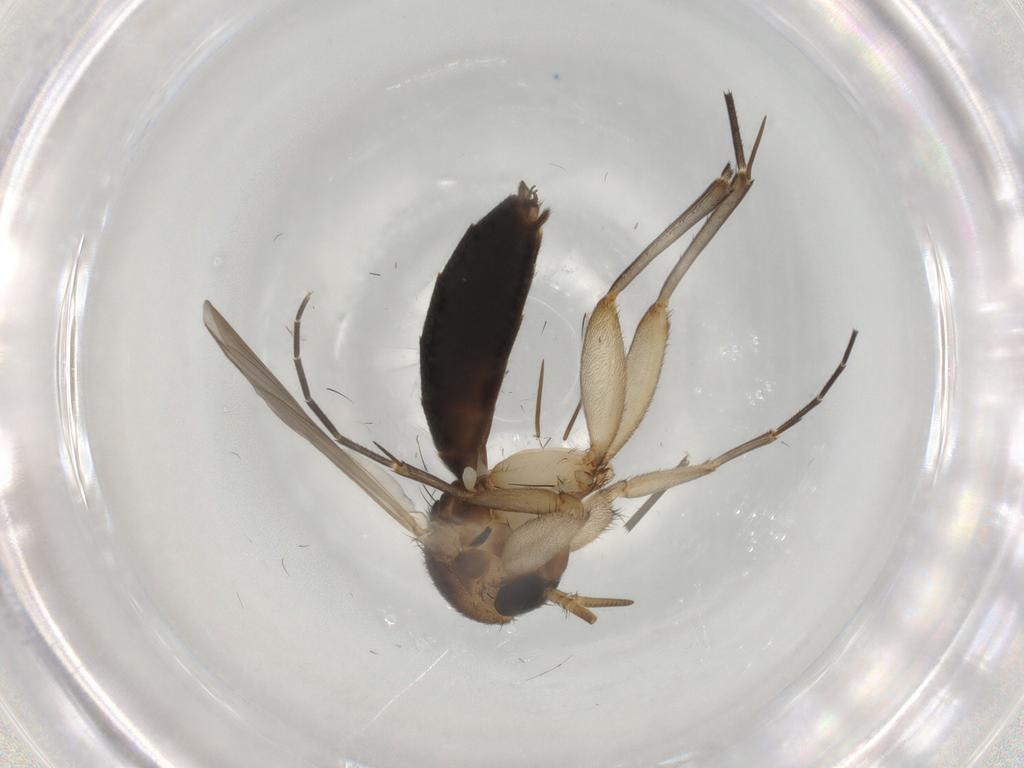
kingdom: Animalia
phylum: Arthropoda
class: Insecta
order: Diptera
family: Mycetophilidae
